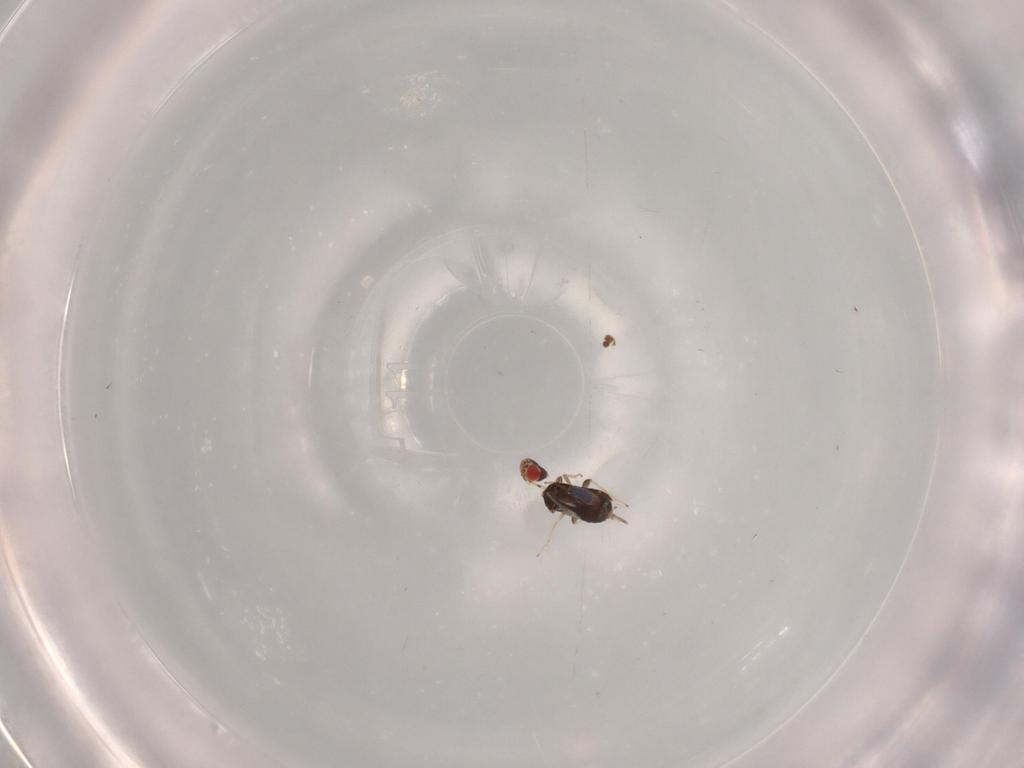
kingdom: Animalia
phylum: Arthropoda
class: Insecta
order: Hymenoptera
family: Azotidae
